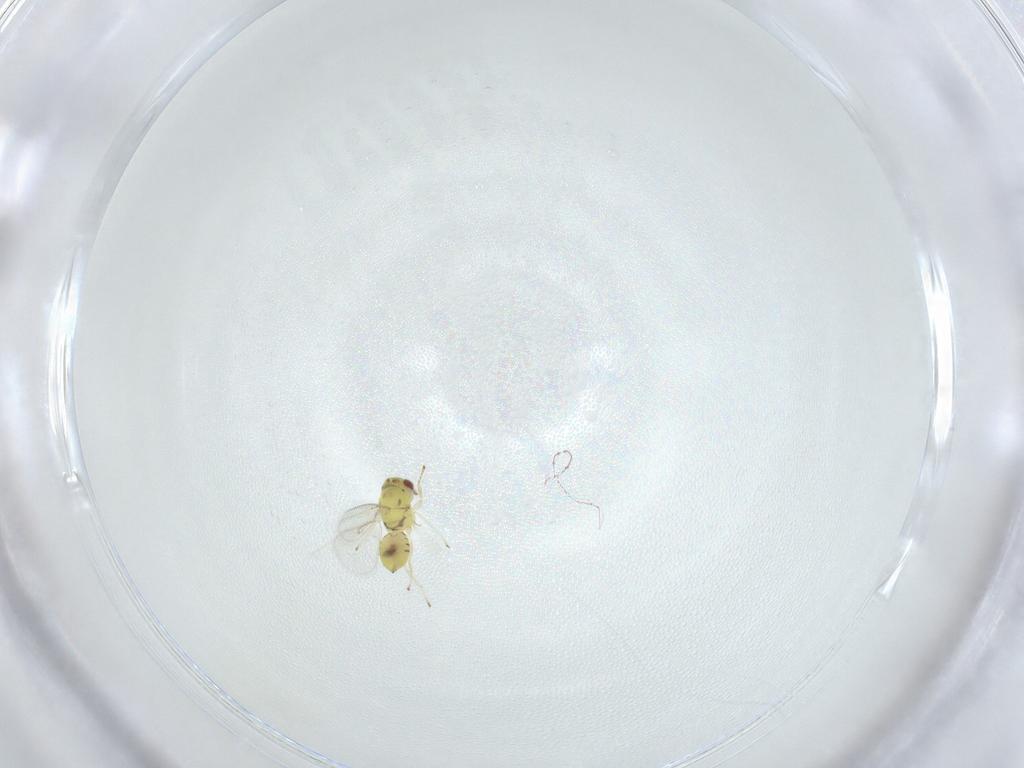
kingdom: Animalia
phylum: Arthropoda
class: Insecta
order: Hymenoptera
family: Eulophidae
